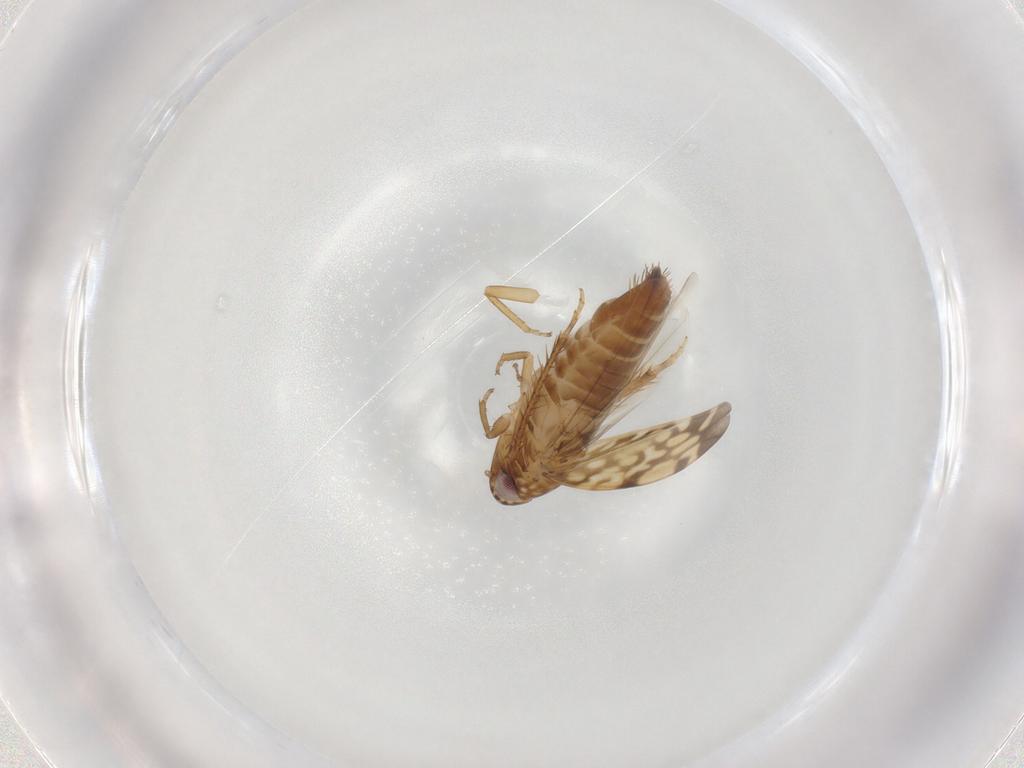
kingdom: Animalia
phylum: Arthropoda
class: Insecta
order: Hemiptera
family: Cicadellidae
